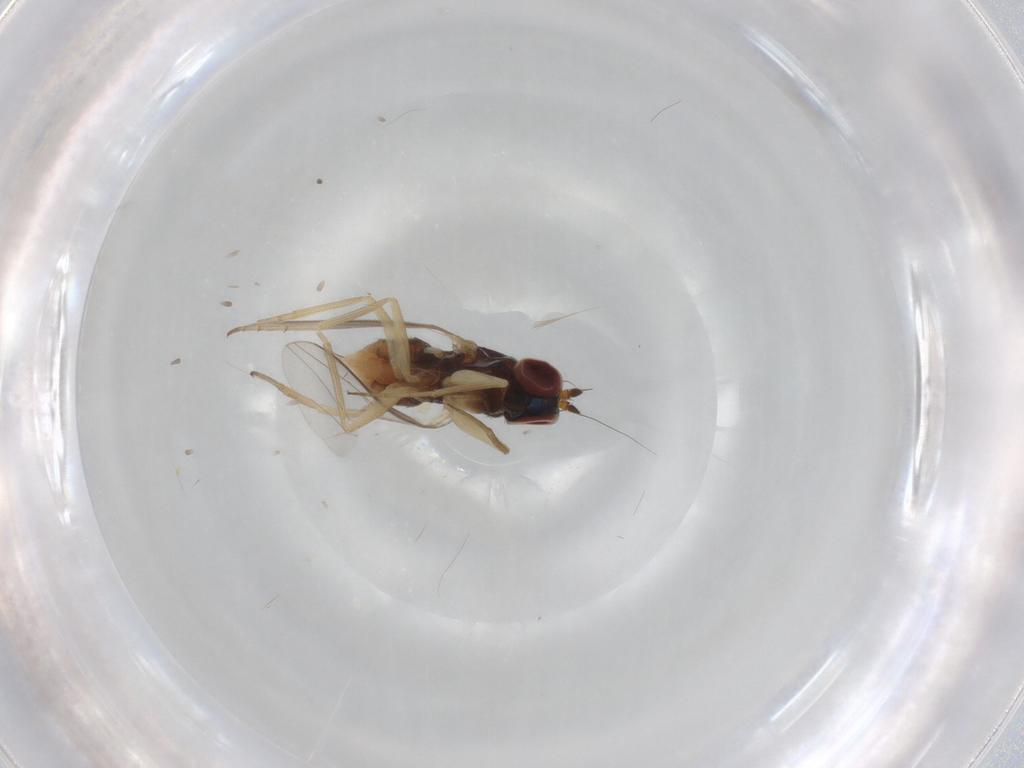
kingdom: Animalia
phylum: Arthropoda
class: Insecta
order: Diptera
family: Dolichopodidae
